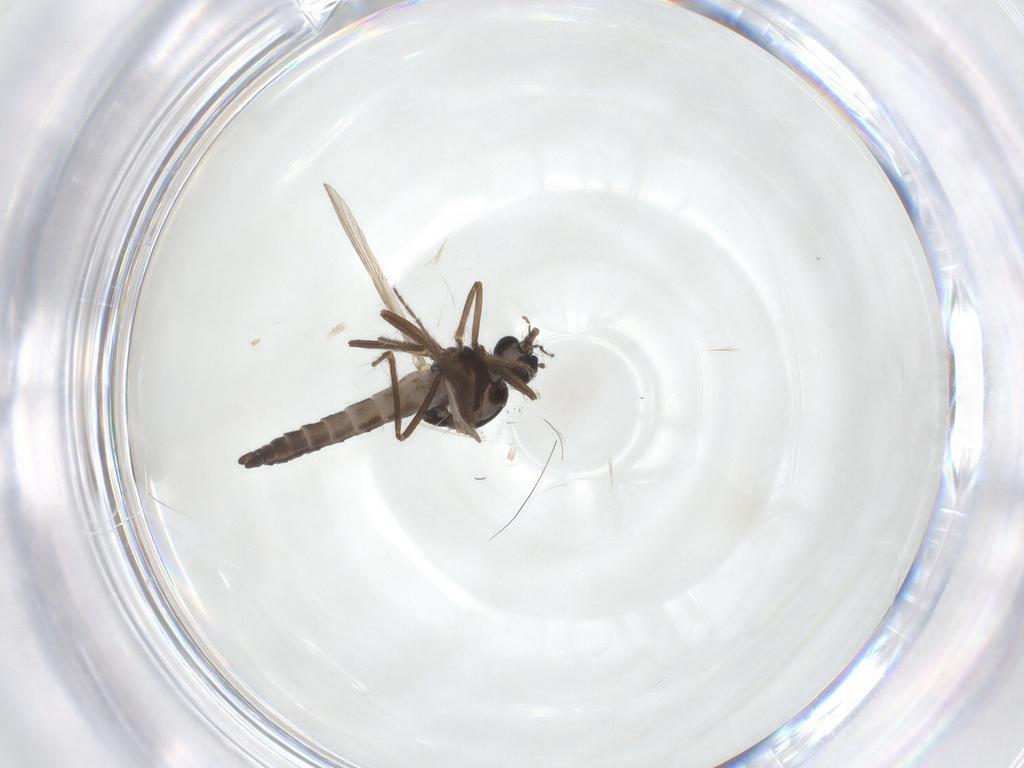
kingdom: Animalia
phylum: Arthropoda
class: Insecta
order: Diptera
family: Ceratopogonidae
